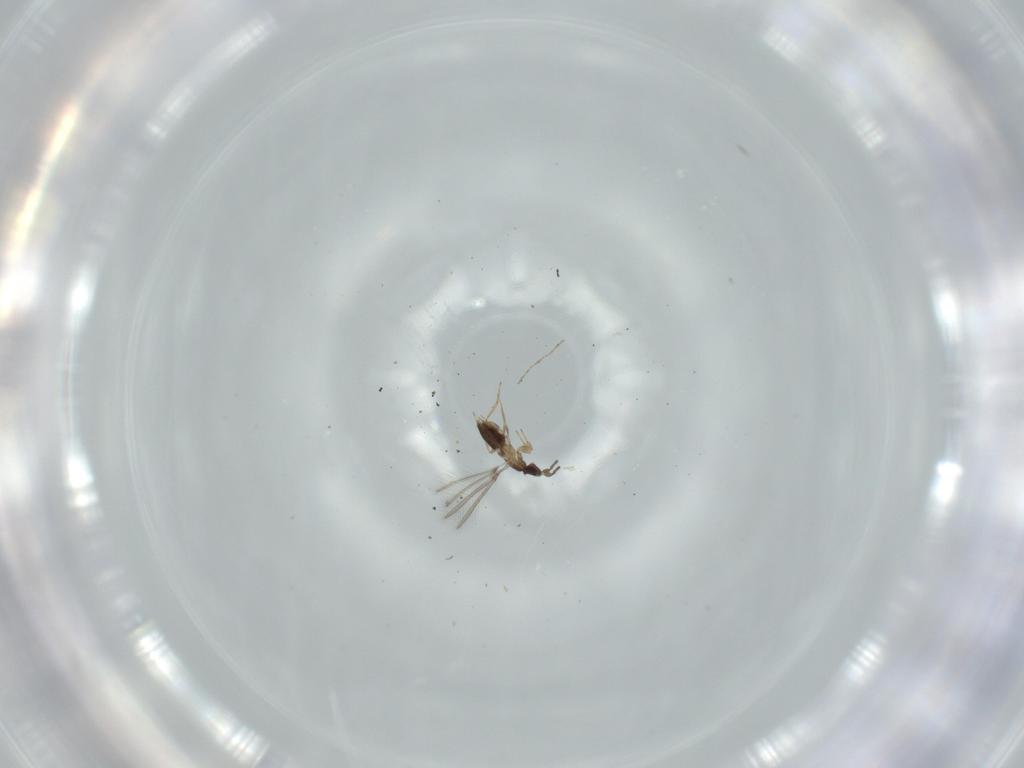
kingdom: Animalia
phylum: Arthropoda
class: Insecta
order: Hymenoptera
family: Mymaridae
